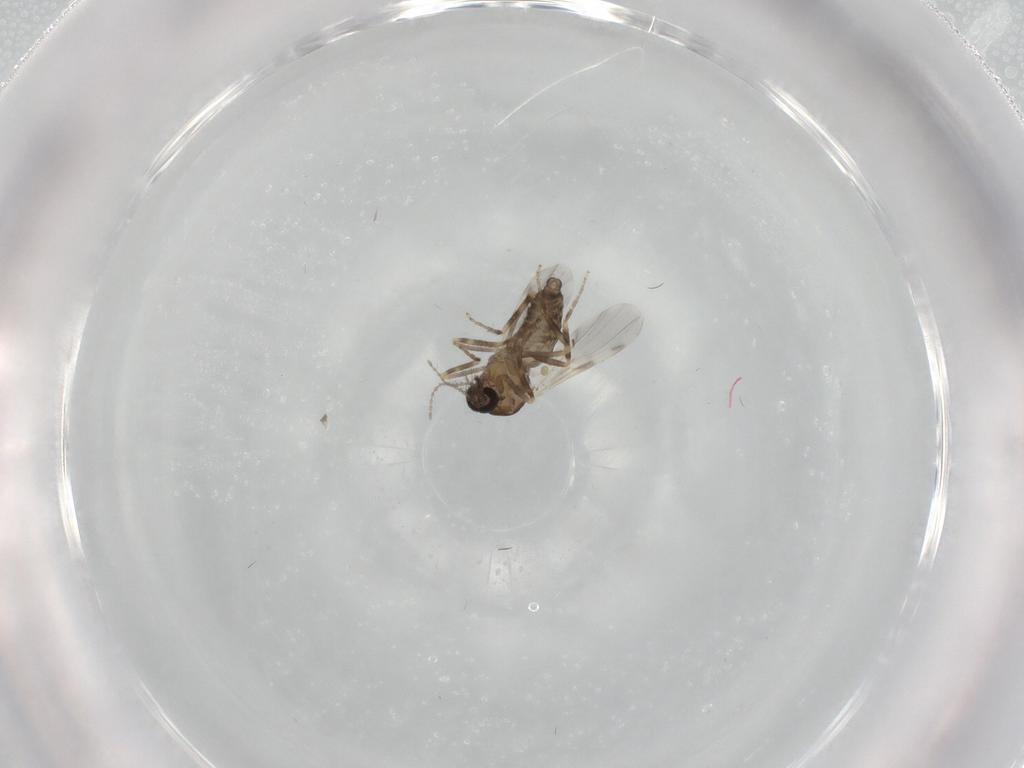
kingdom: Animalia
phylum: Arthropoda
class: Insecta
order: Diptera
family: Ceratopogonidae
